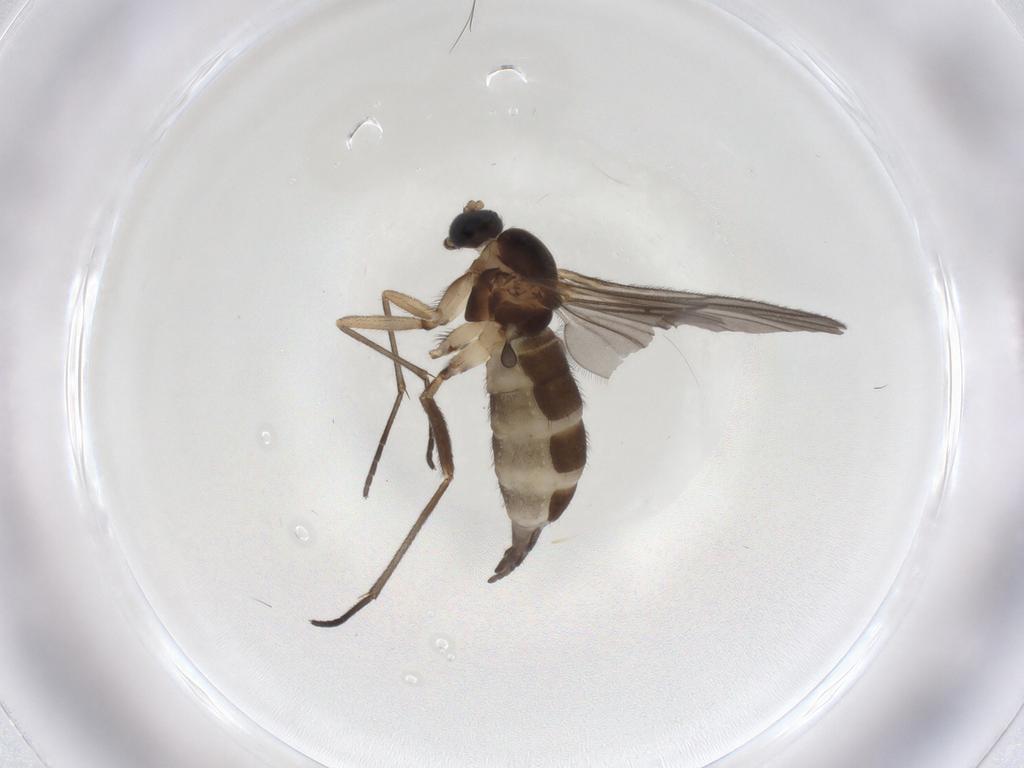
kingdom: Animalia
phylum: Arthropoda
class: Insecta
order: Diptera
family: Sciaridae
